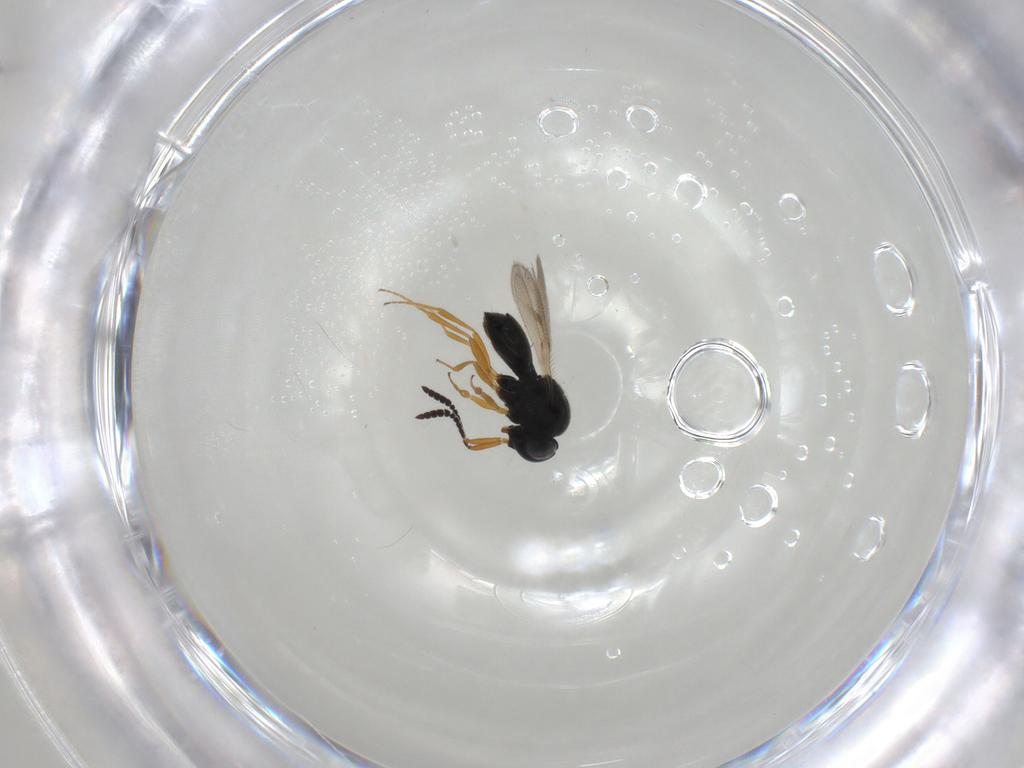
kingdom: Animalia
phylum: Arthropoda
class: Insecta
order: Hymenoptera
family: Scelionidae
